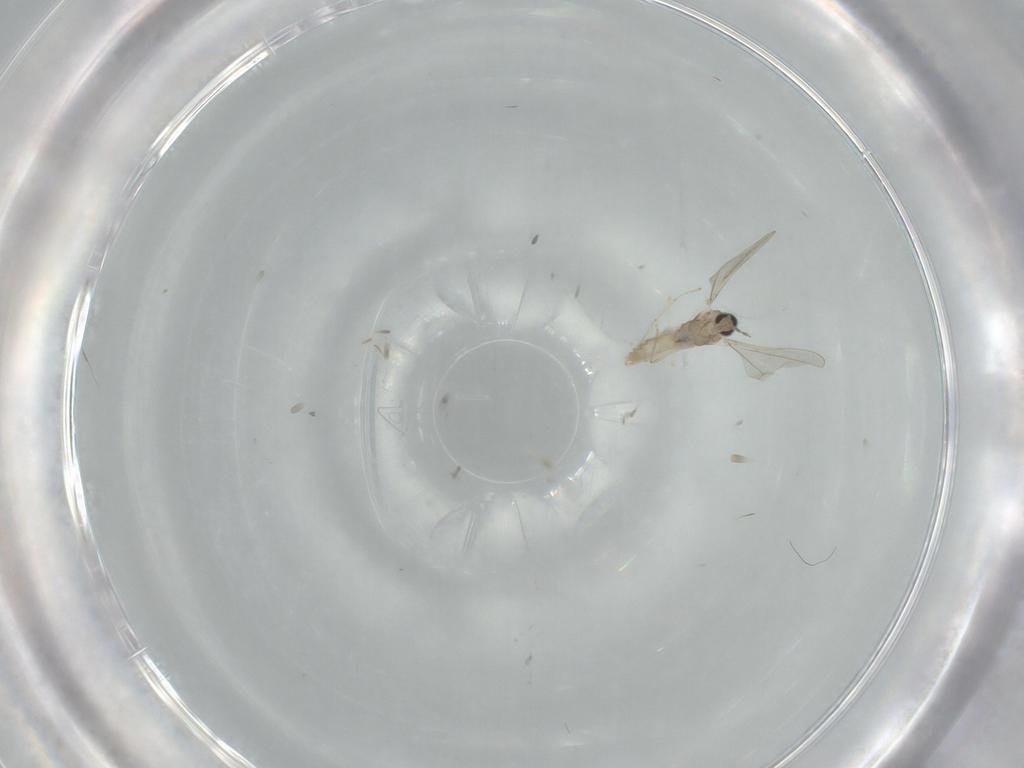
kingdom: Animalia
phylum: Arthropoda
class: Insecta
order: Diptera
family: Cecidomyiidae
